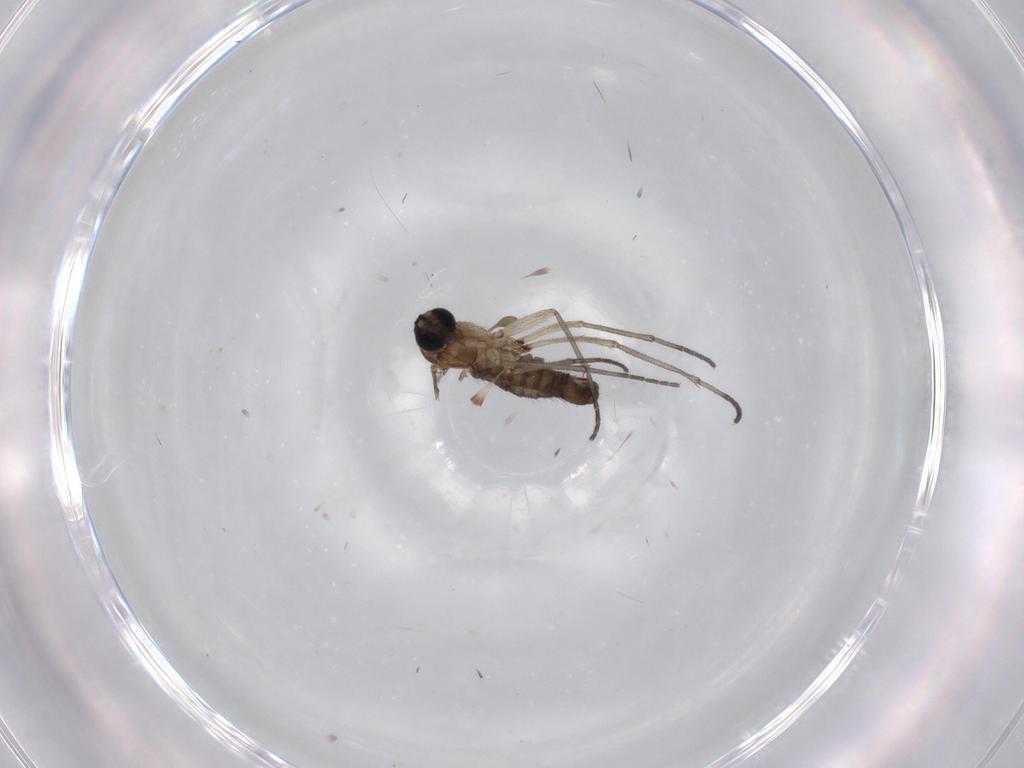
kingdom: Animalia
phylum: Arthropoda
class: Insecta
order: Diptera
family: Sciaridae
